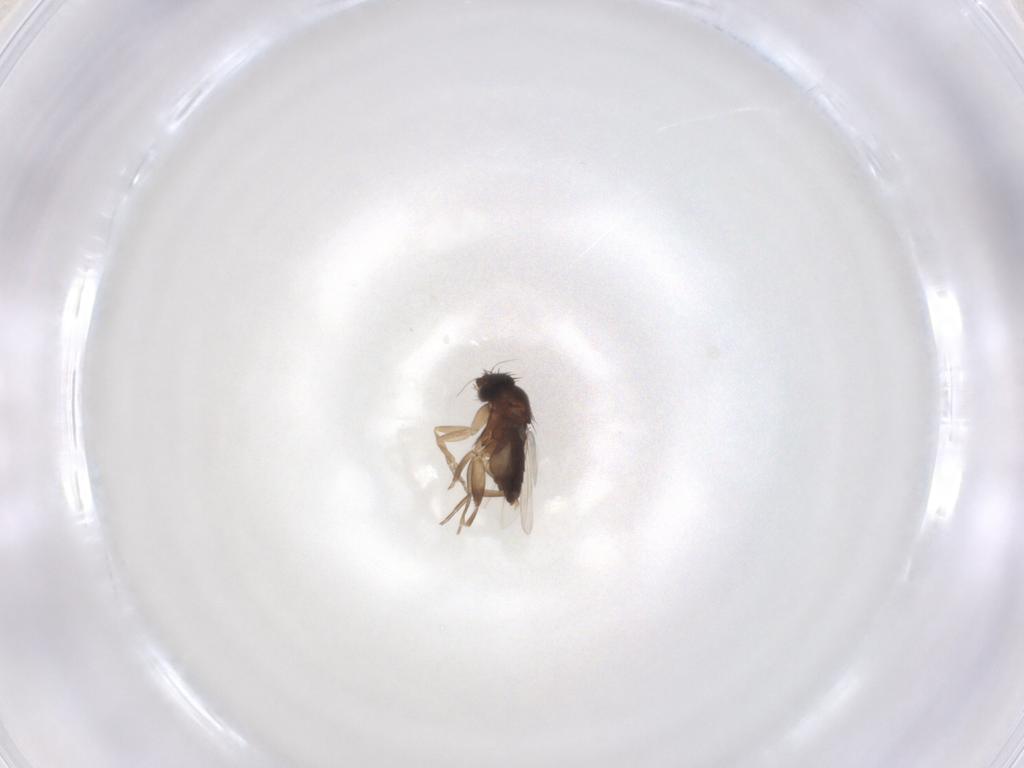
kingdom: Animalia
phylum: Arthropoda
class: Insecta
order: Diptera
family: Phoridae
